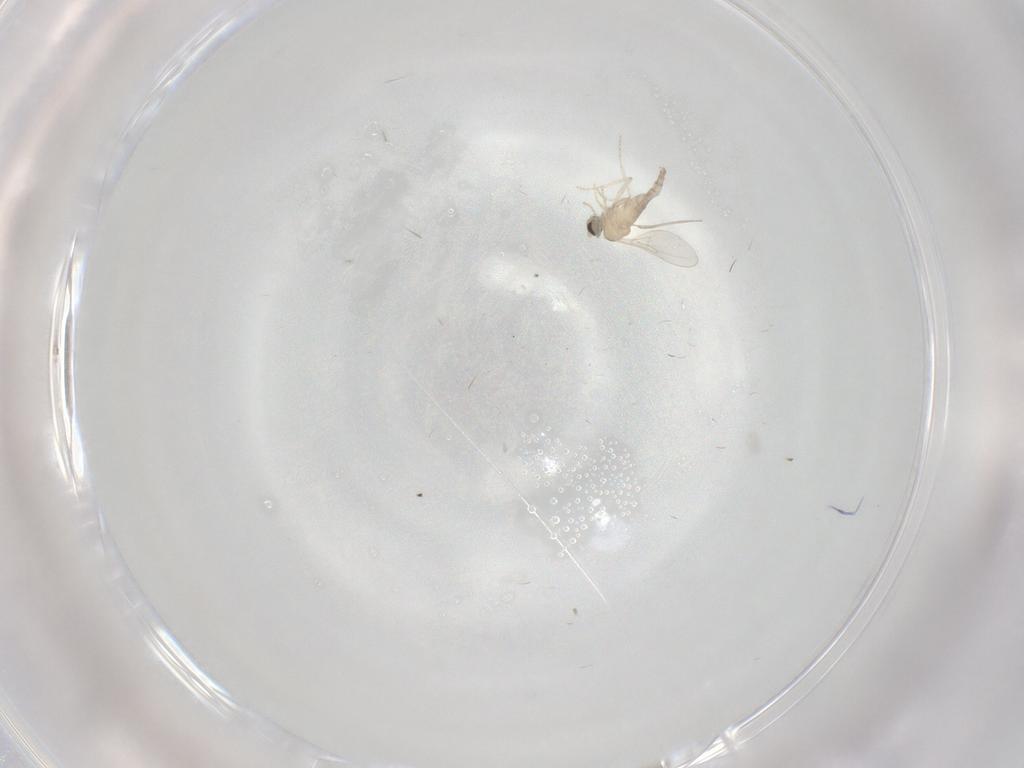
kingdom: Animalia
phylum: Arthropoda
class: Insecta
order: Diptera
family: Cecidomyiidae
